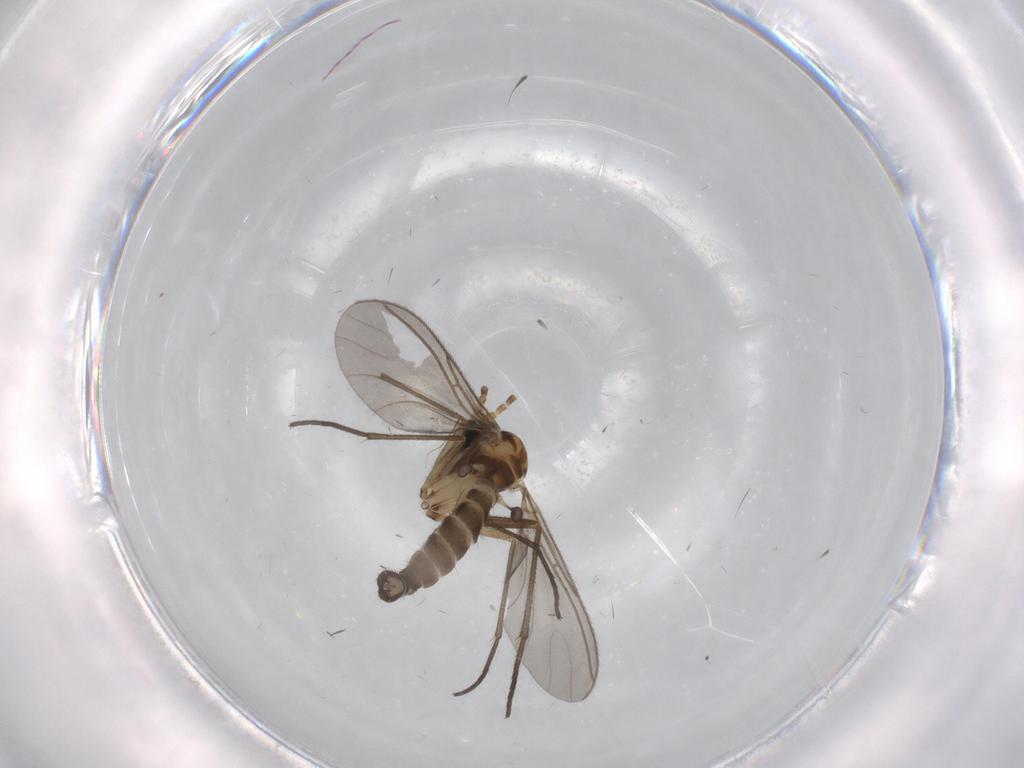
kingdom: Animalia
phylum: Arthropoda
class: Insecta
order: Diptera
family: Sciaridae
